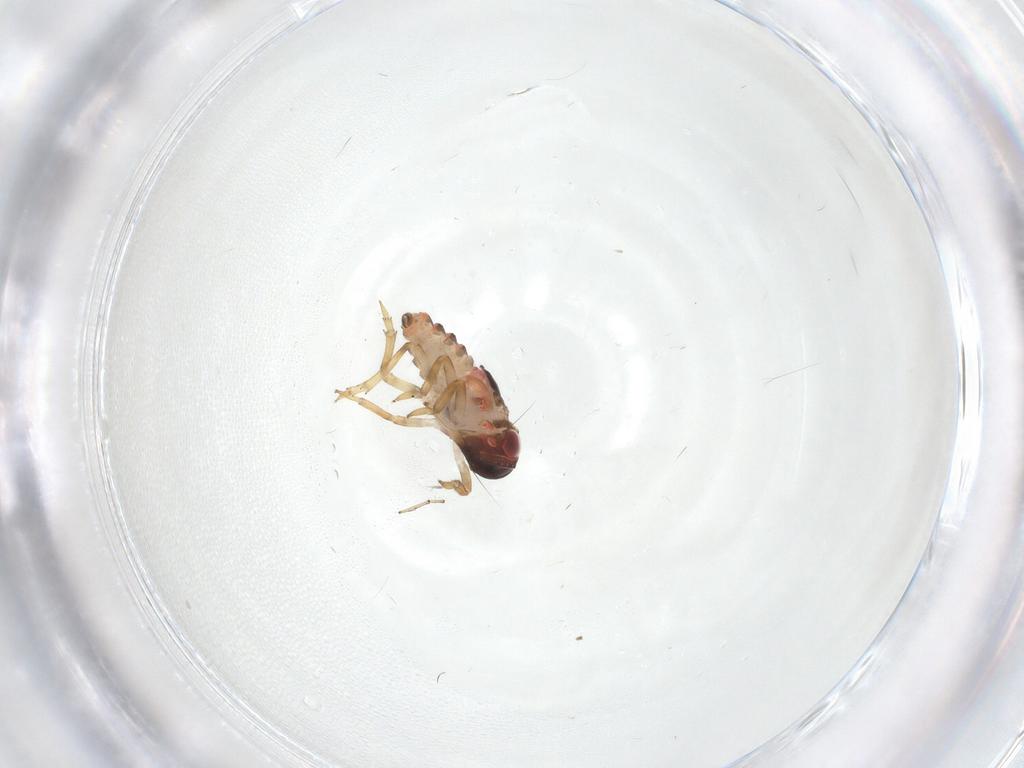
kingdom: Animalia
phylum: Arthropoda
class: Insecta
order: Hemiptera
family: Issidae
